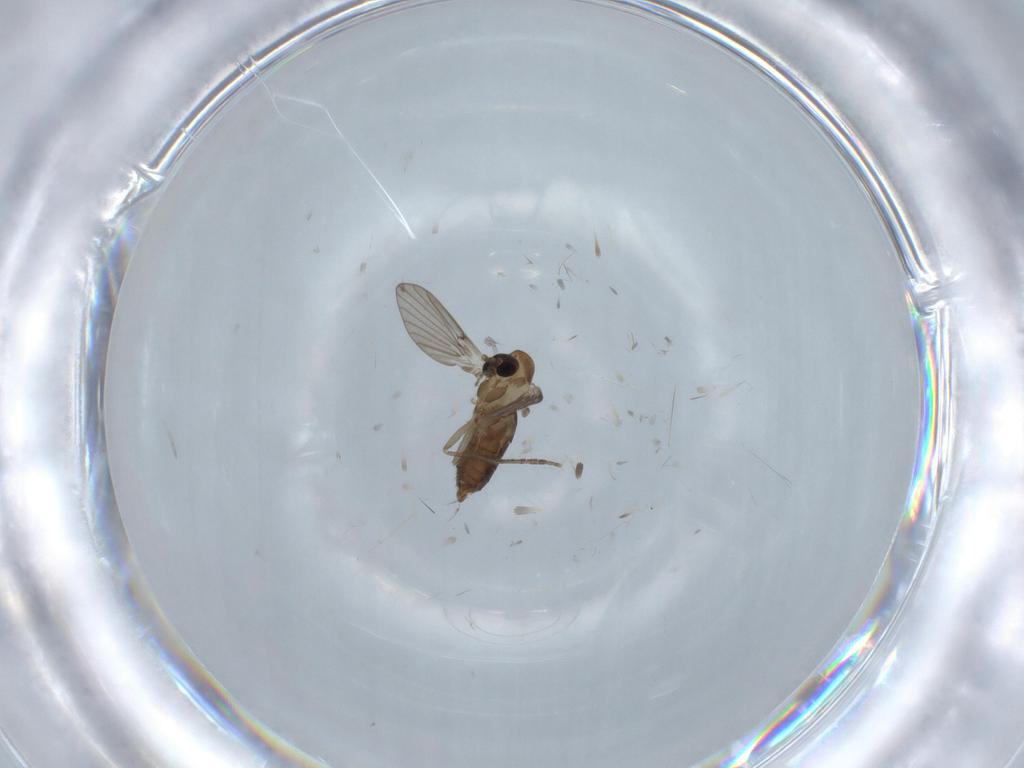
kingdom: Animalia
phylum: Arthropoda
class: Insecta
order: Diptera
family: Psychodidae
